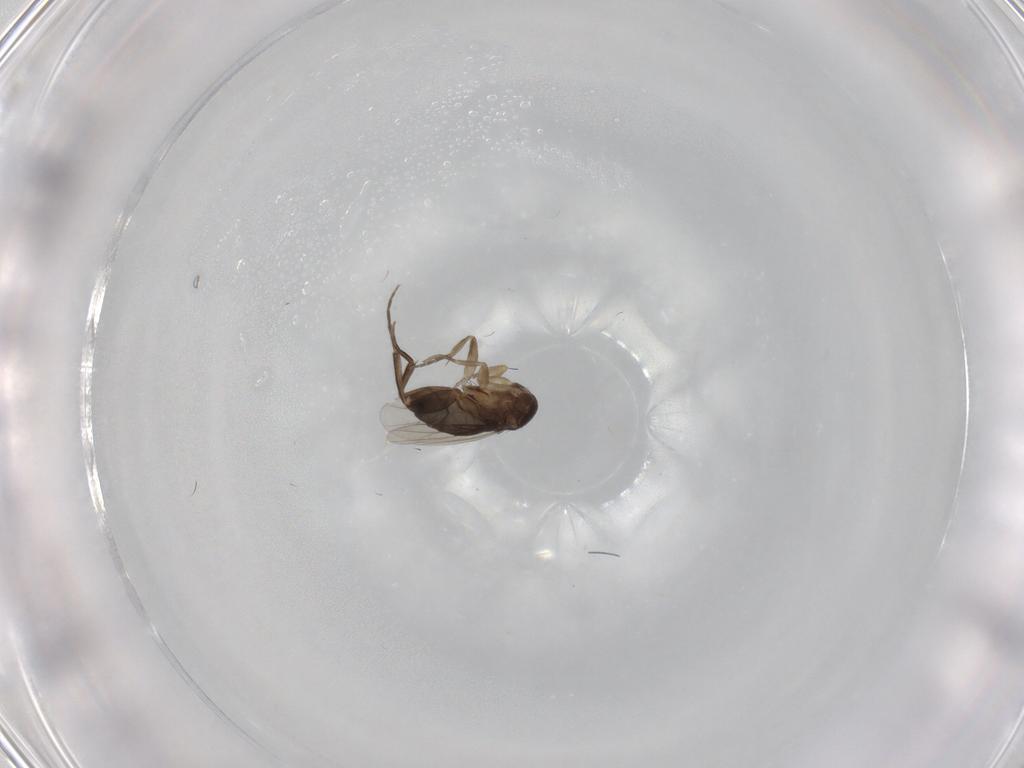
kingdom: Animalia
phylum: Arthropoda
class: Insecta
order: Diptera
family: Phoridae
